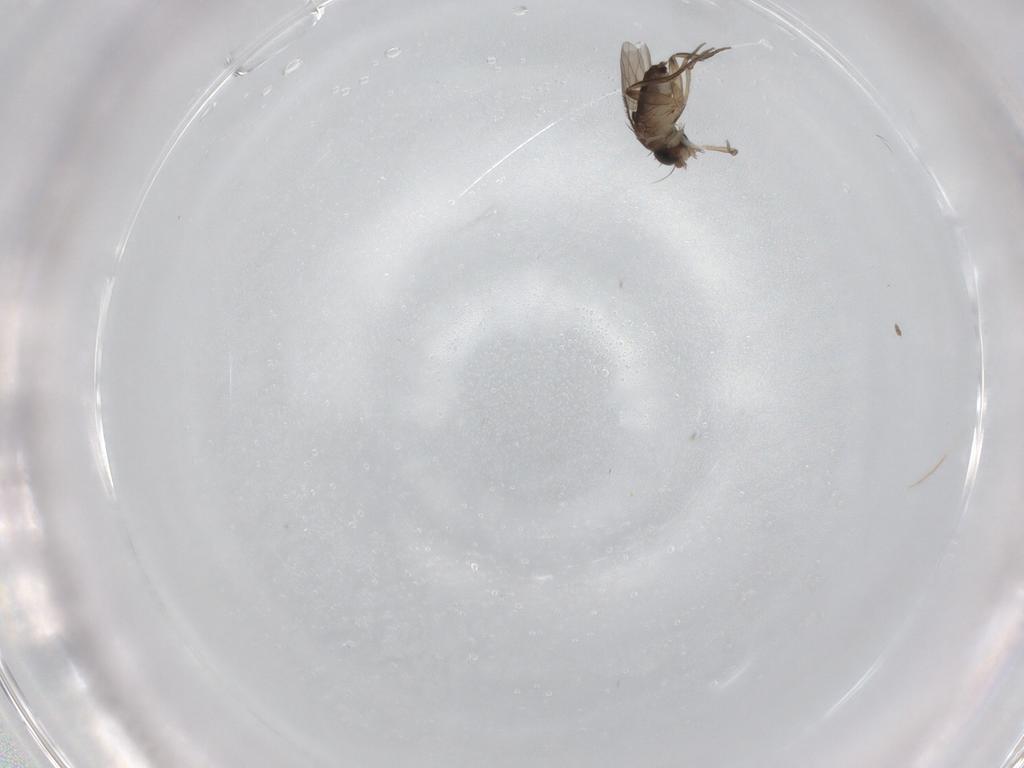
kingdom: Animalia
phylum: Arthropoda
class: Insecta
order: Diptera
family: Phoridae
